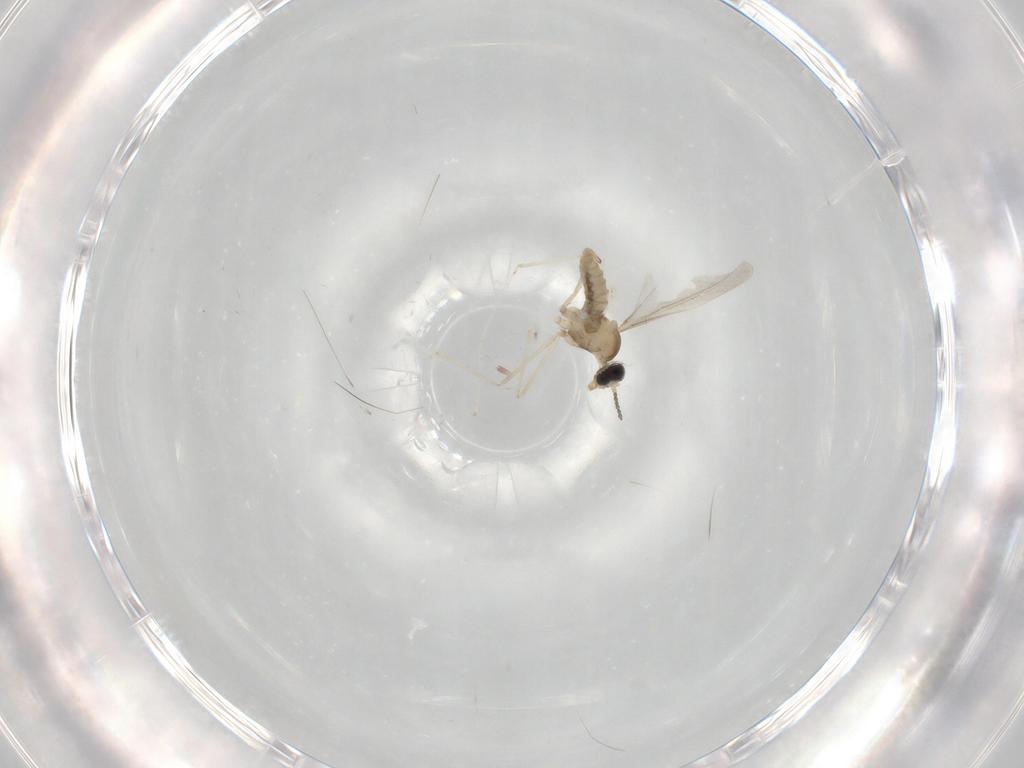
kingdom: Animalia
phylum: Arthropoda
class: Insecta
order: Diptera
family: Cecidomyiidae
